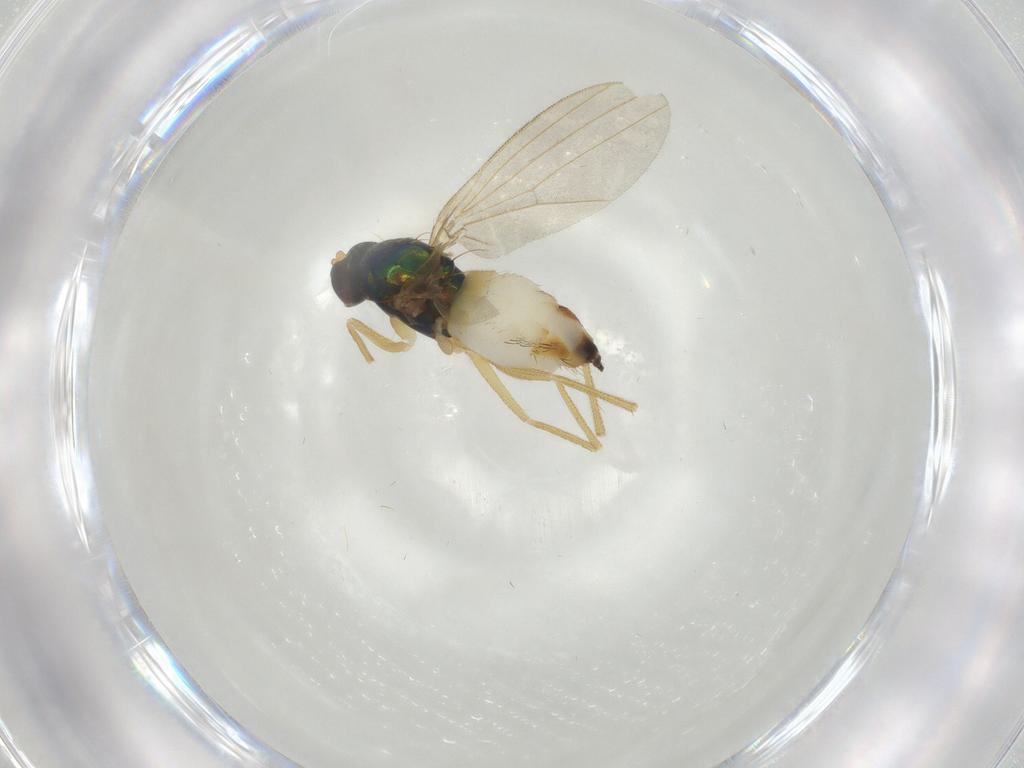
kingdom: Animalia
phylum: Arthropoda
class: Insecta
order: Diptera
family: Dolichopodidae
